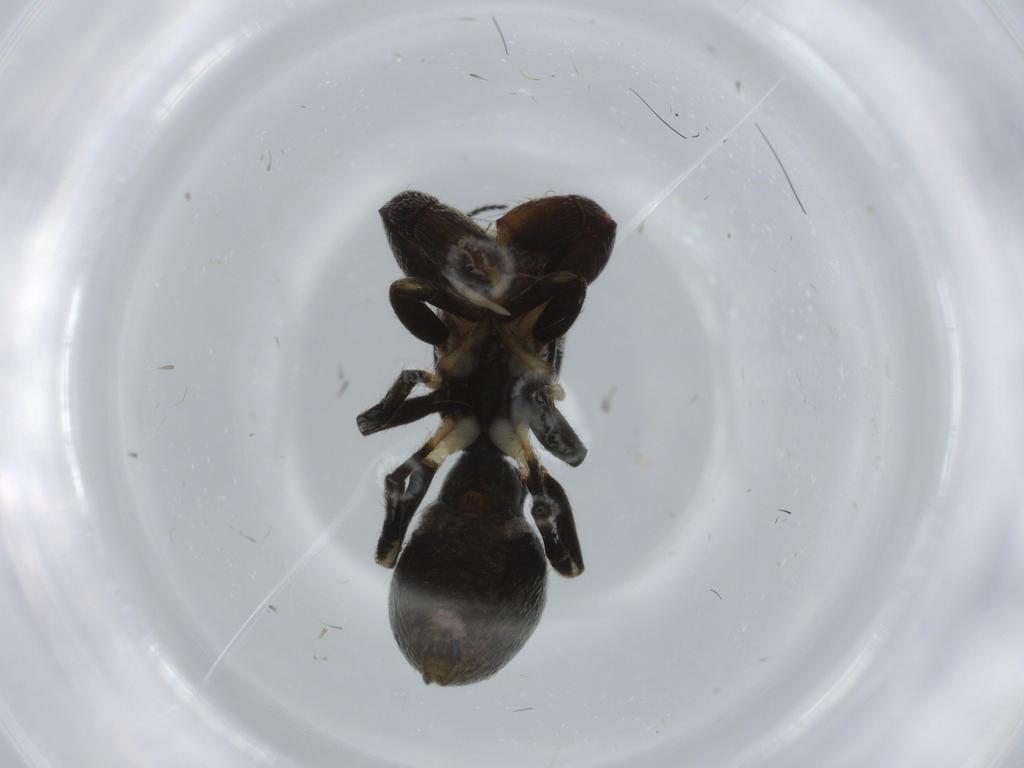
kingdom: Animalia
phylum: Arthropoda
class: Arachnida
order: Araneae
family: Salticidae
